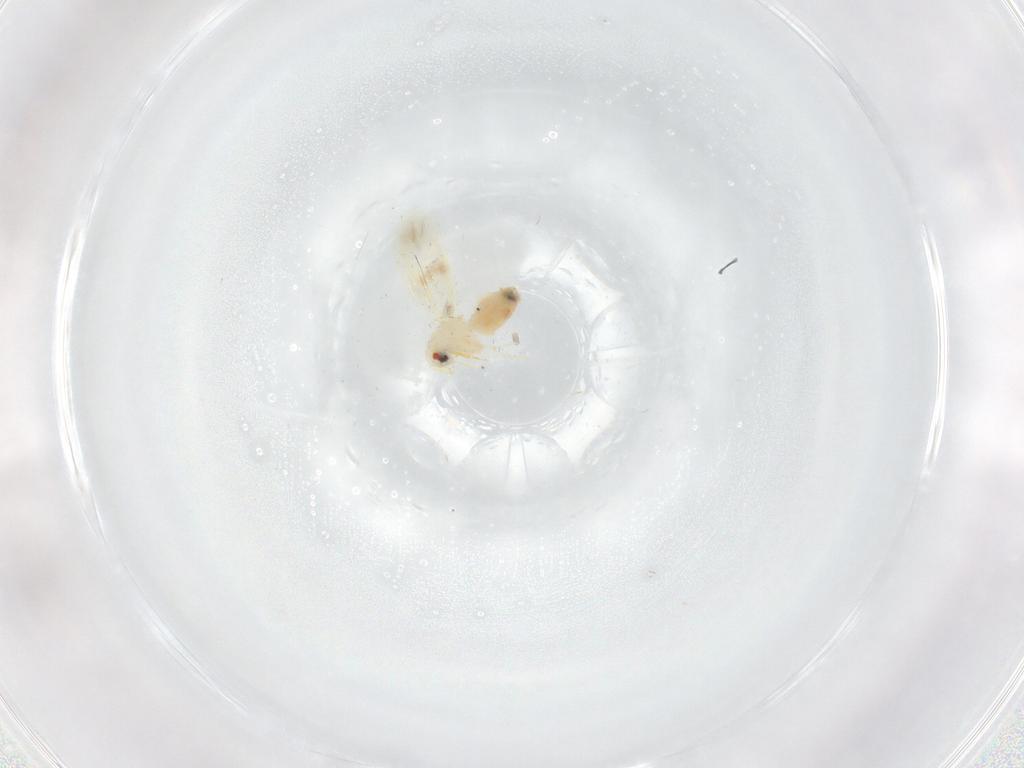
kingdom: Animalia
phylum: Arthropoda
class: Insecta
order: Hemiptera
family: Aleyrodidae
